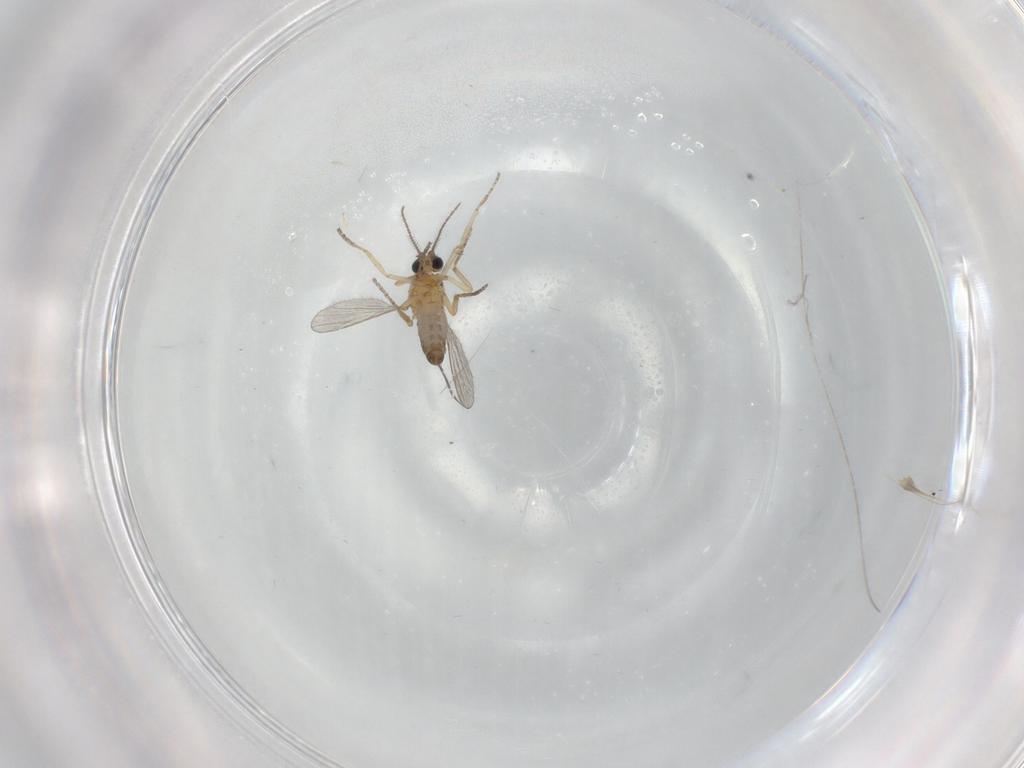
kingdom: Animalia
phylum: Arthropoda
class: Insecta
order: Diptera
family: Ceratopogonidae
